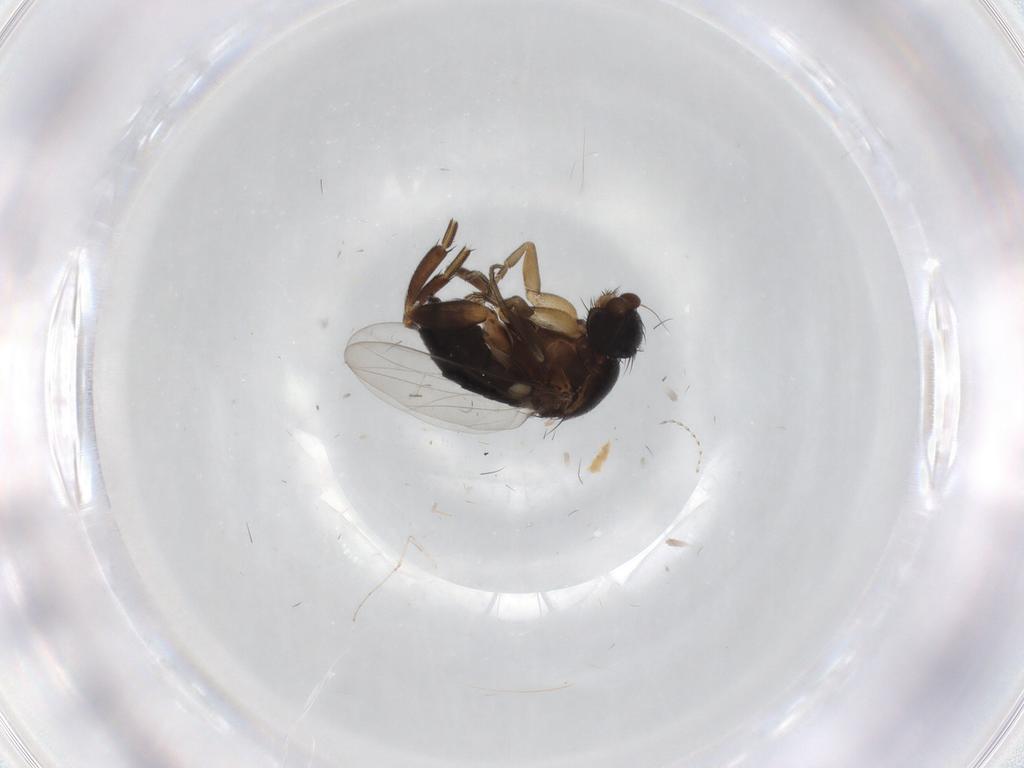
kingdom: Animalia
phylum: Arthropoda
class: Insecta
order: Diptera
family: Phoridae
